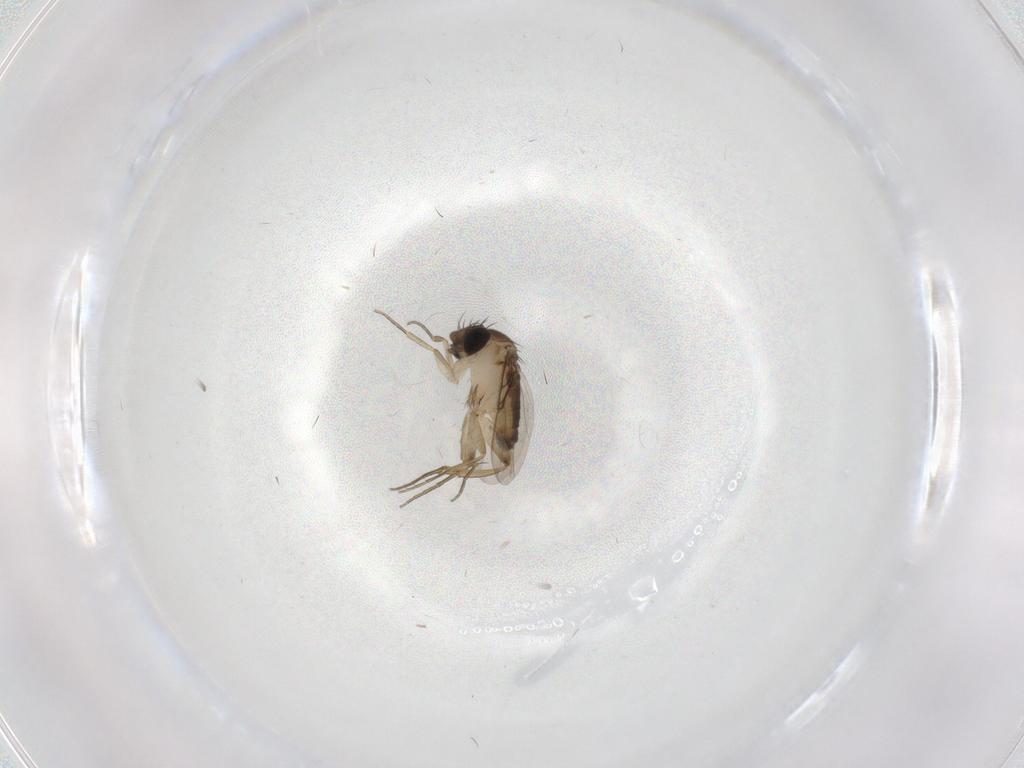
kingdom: Animalia
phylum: Arthropoda
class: Insecta
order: Diptera
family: Phoridae
